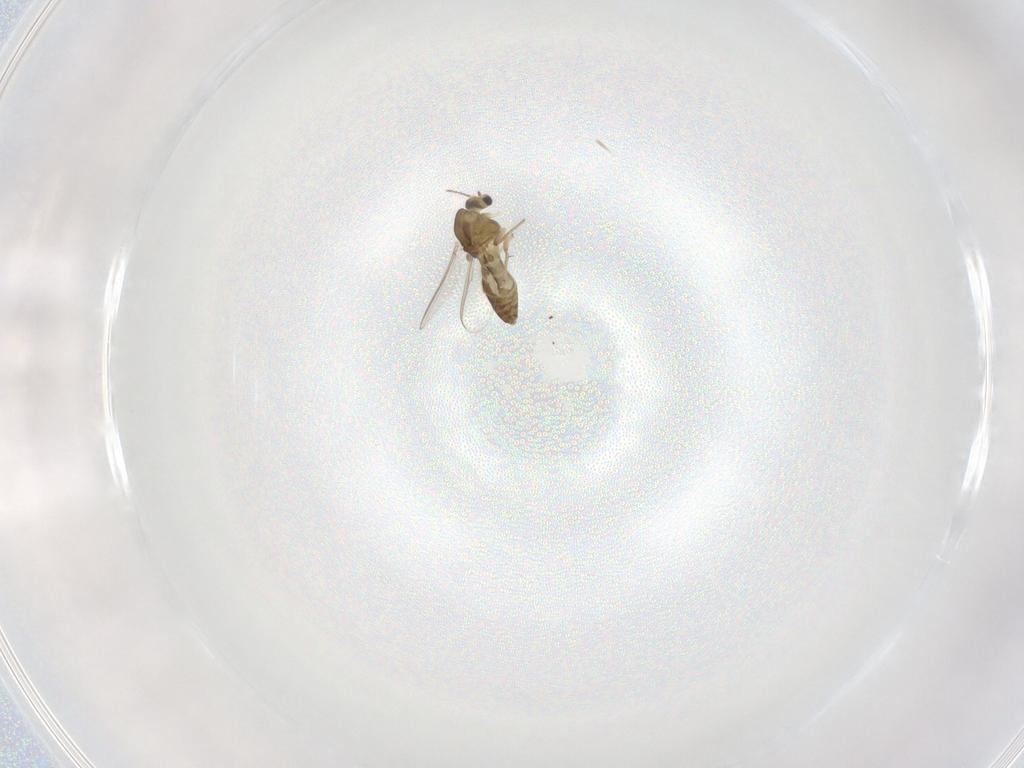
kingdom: Animalia
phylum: Arthropoda
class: Insecta
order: Diptera
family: Chironomidae
